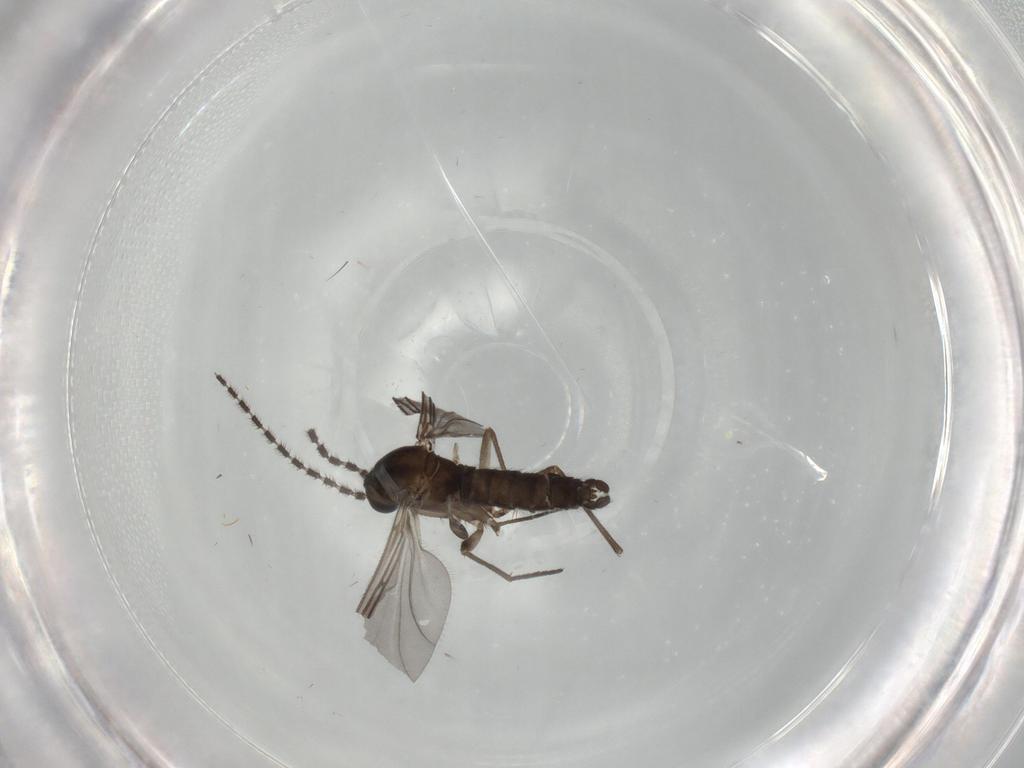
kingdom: Animalia
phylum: Arthropoda
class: Insecta
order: Diptera
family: Sciaridae
